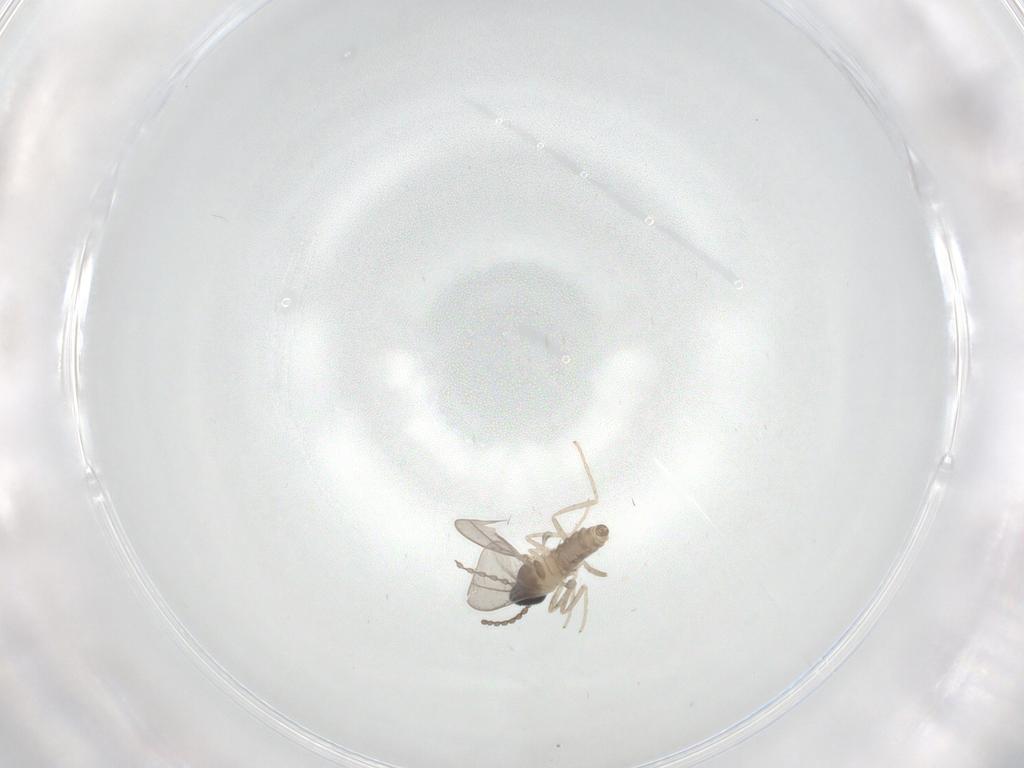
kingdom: Animalia
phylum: Arthropoda
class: Insecta
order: Diptera
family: Cecidomyiidae
